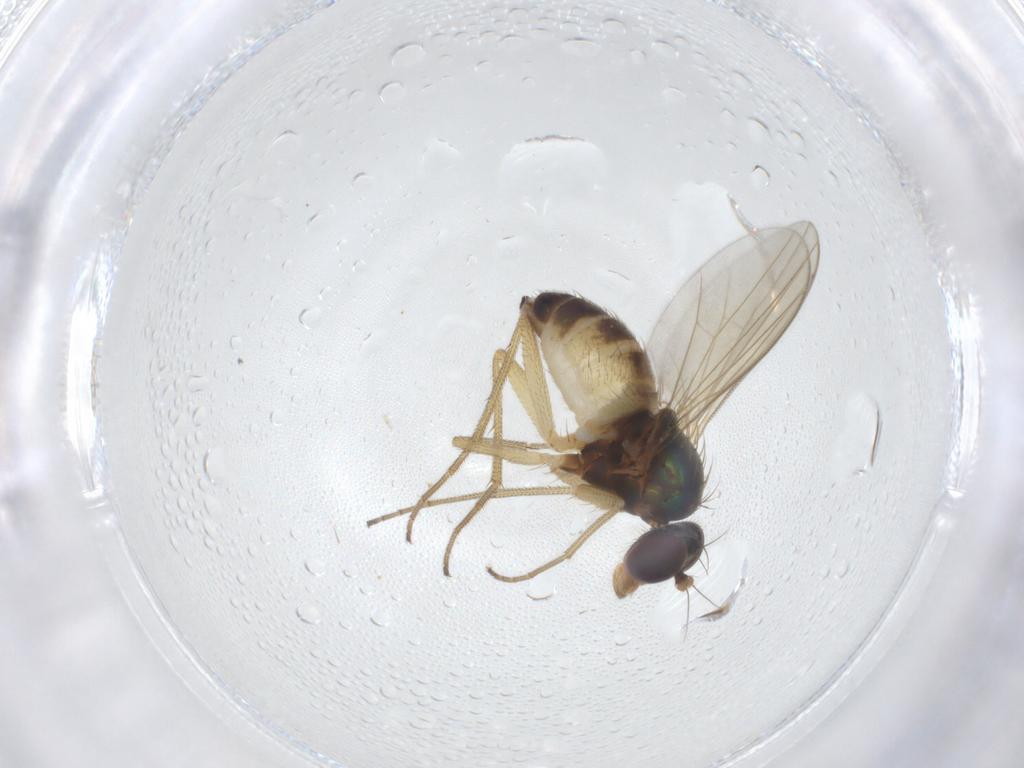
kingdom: Animalia
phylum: Arthropoda
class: Insecta
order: Diptera
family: Dolichopodidae
